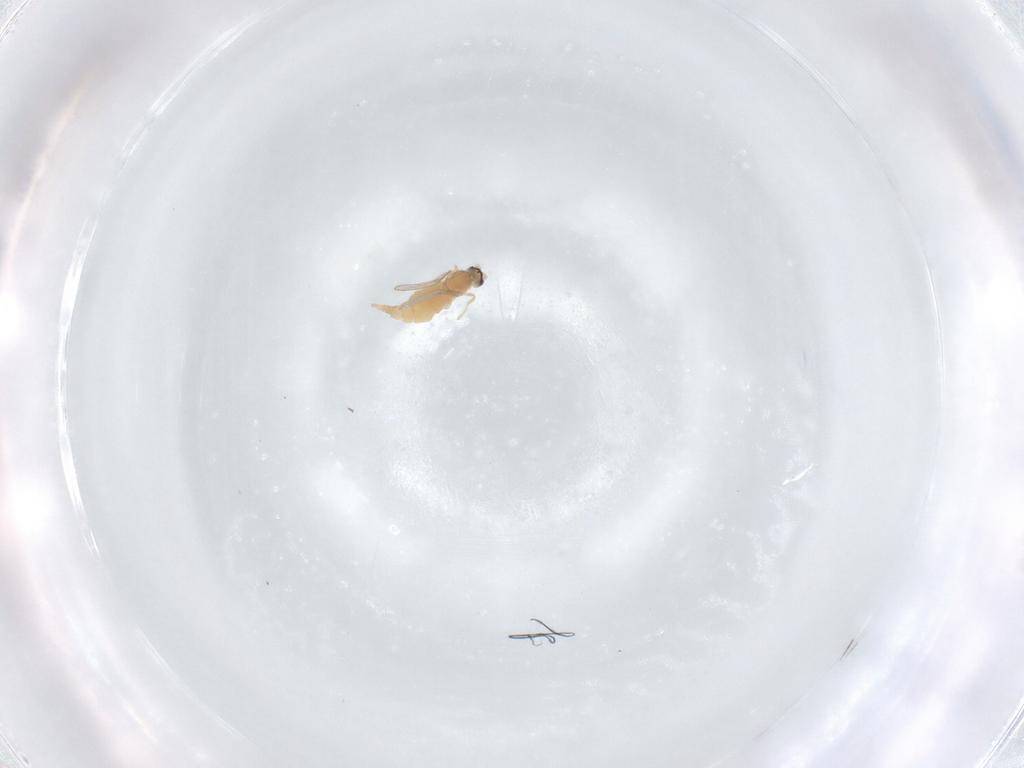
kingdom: Animalia
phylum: Arthropoda
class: Insecta
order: Diptera
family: Cecidomyiidae
